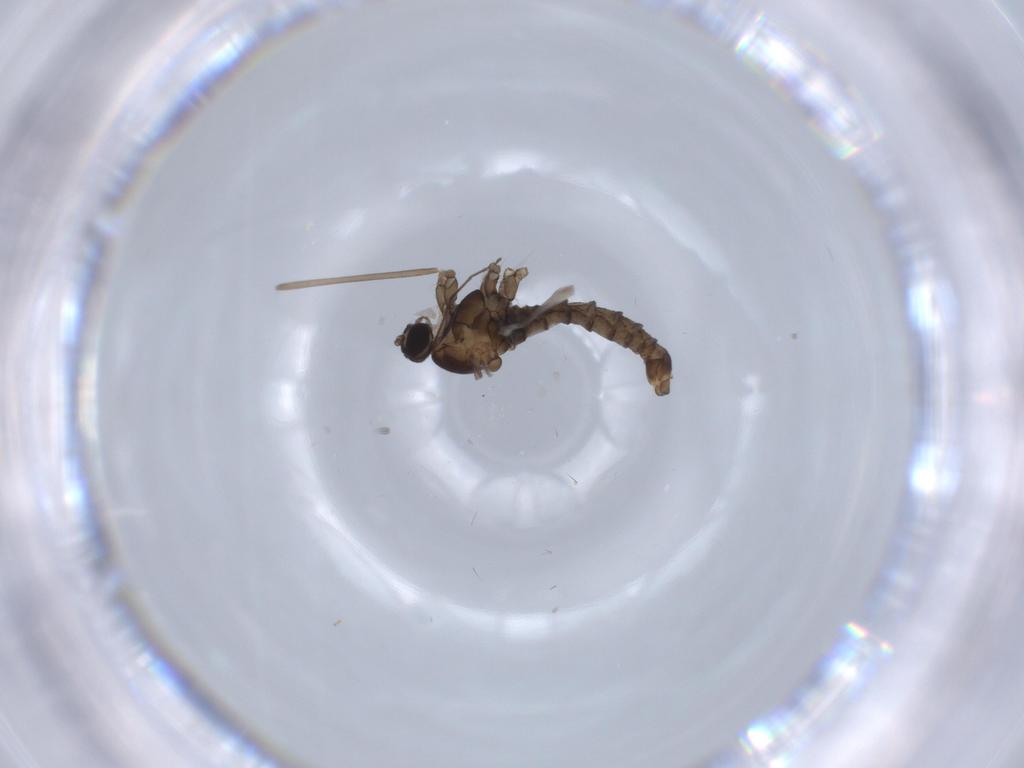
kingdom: Animalia
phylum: Arthropoda
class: Insecta
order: Diptera
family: Cecidomyiidae
